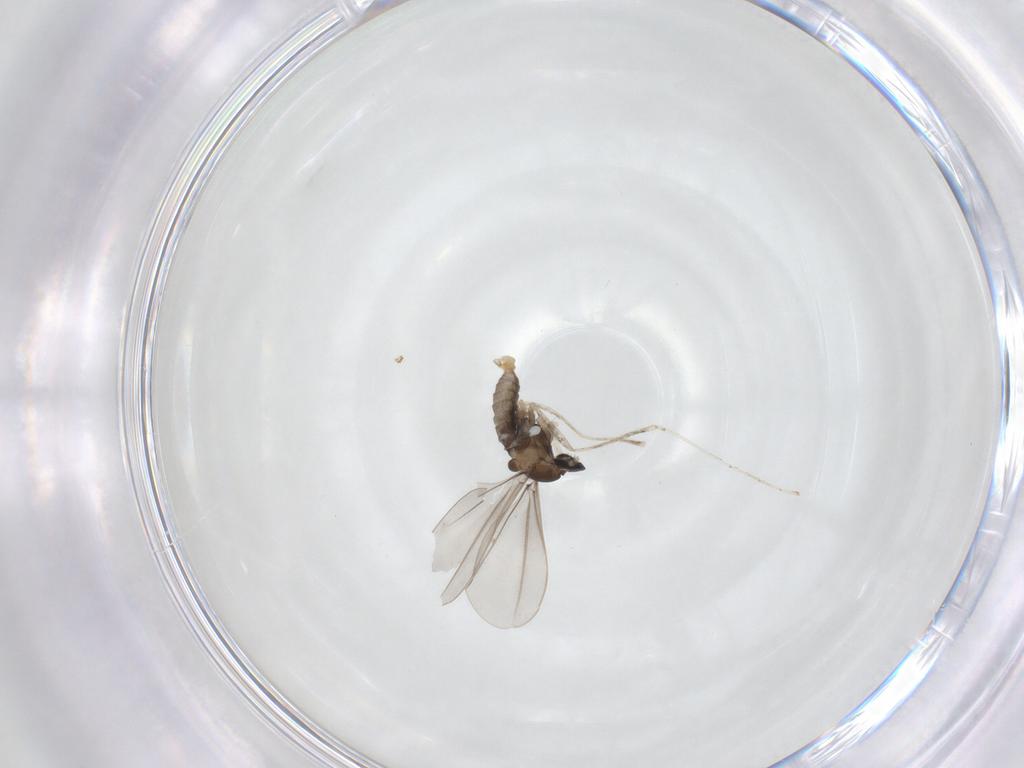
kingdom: Animalia
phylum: Arthropoda
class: Insecta
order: Diptera
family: Cecidomyiidae
